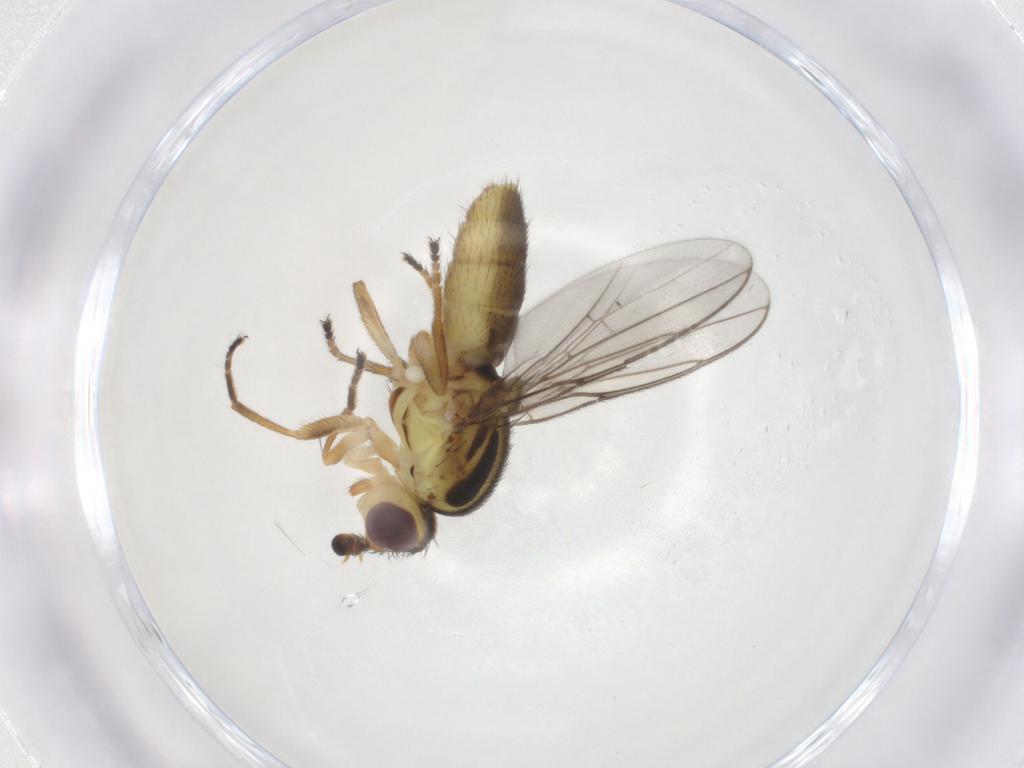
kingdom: Animalia
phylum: Arthropoda
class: Insecta
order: Diptera
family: Chloropidae
